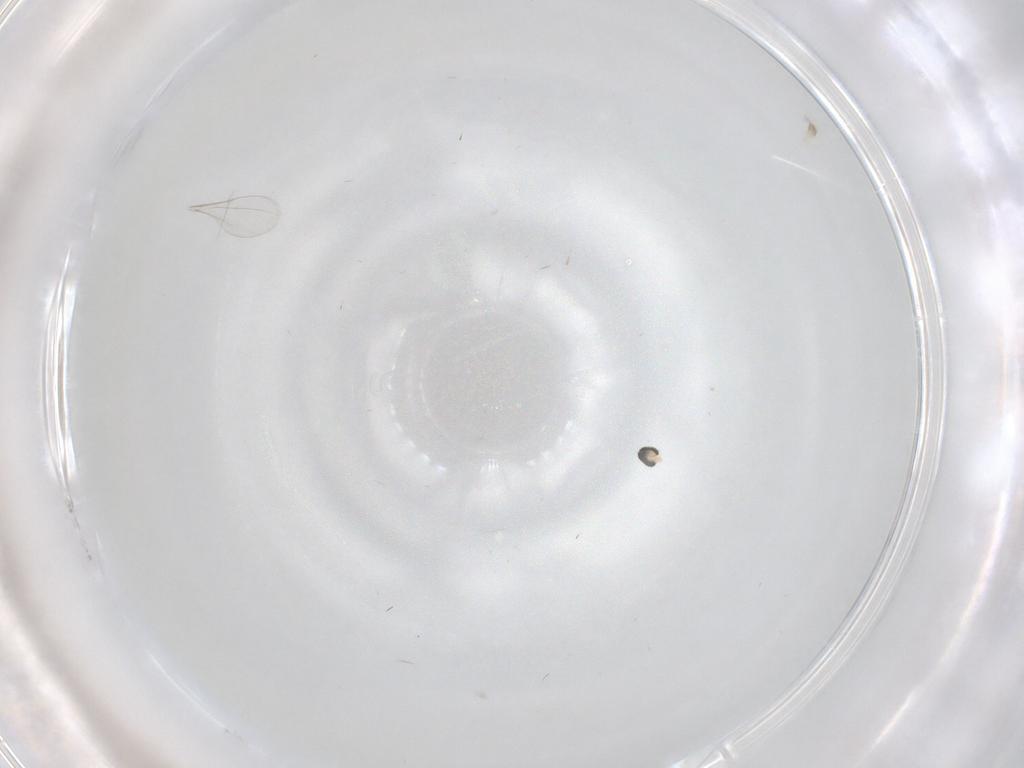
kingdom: Animalia
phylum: Arthropoda
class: Insecta
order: Diptera
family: Cecidomyiidae
